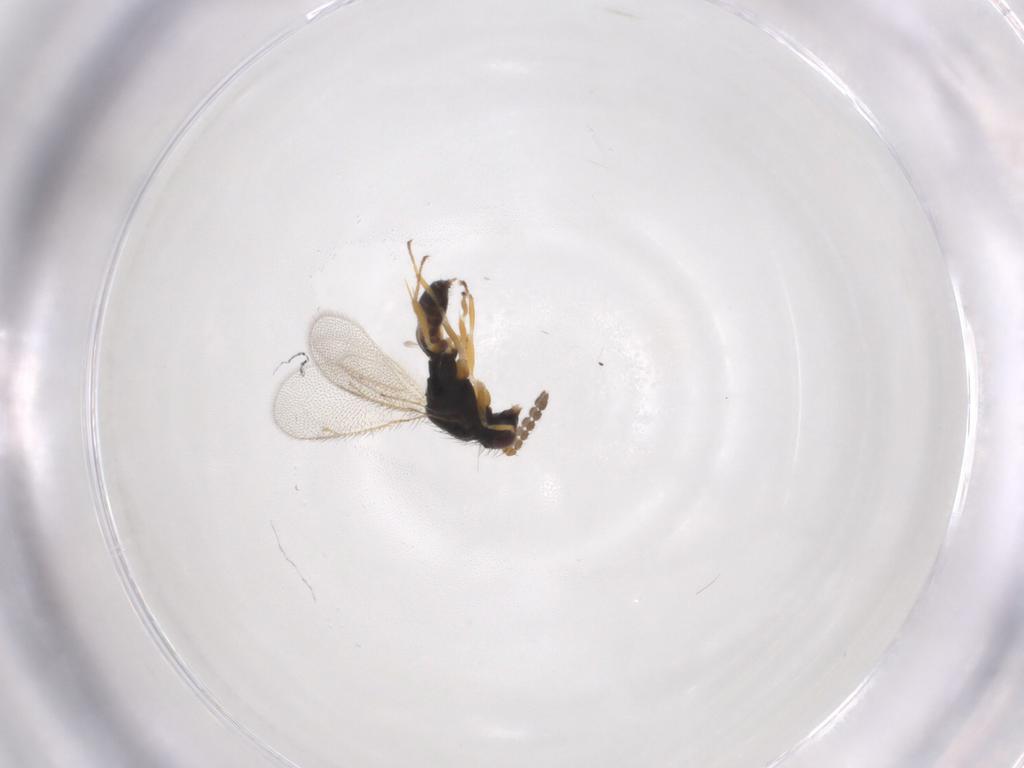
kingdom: Animalia
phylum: Arthropoda
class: Insecta
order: Hymenoptera
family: Eulophidae
